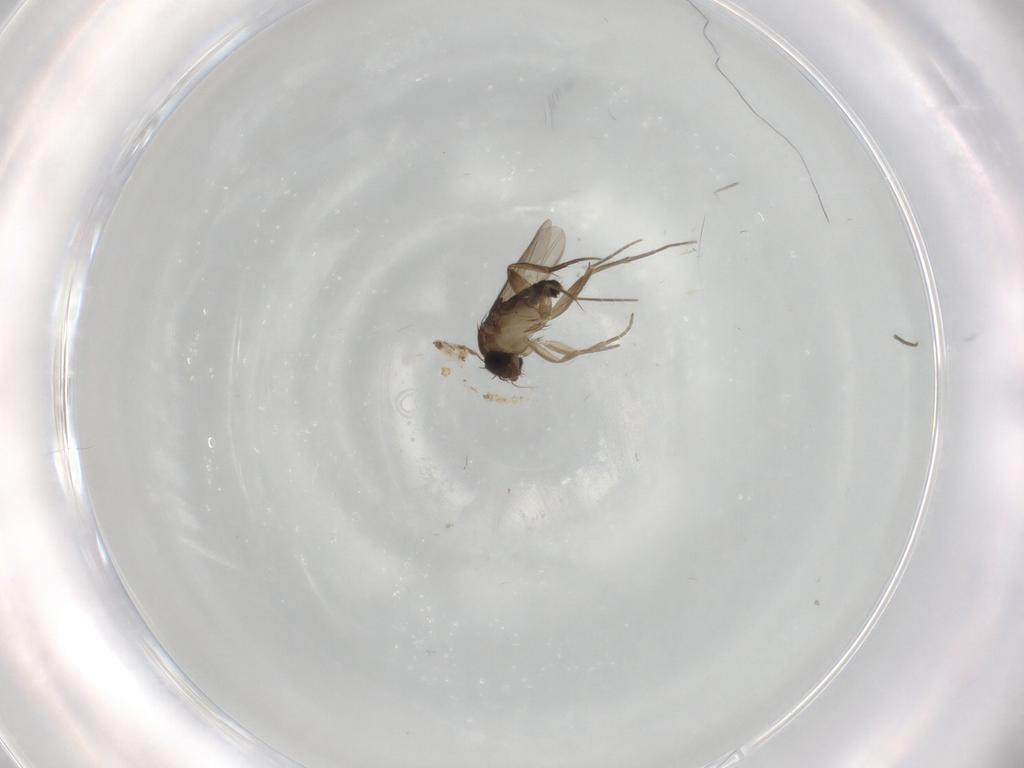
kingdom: Animalia
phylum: Arthropoda
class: Insecta
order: Diptera
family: Phoridae
